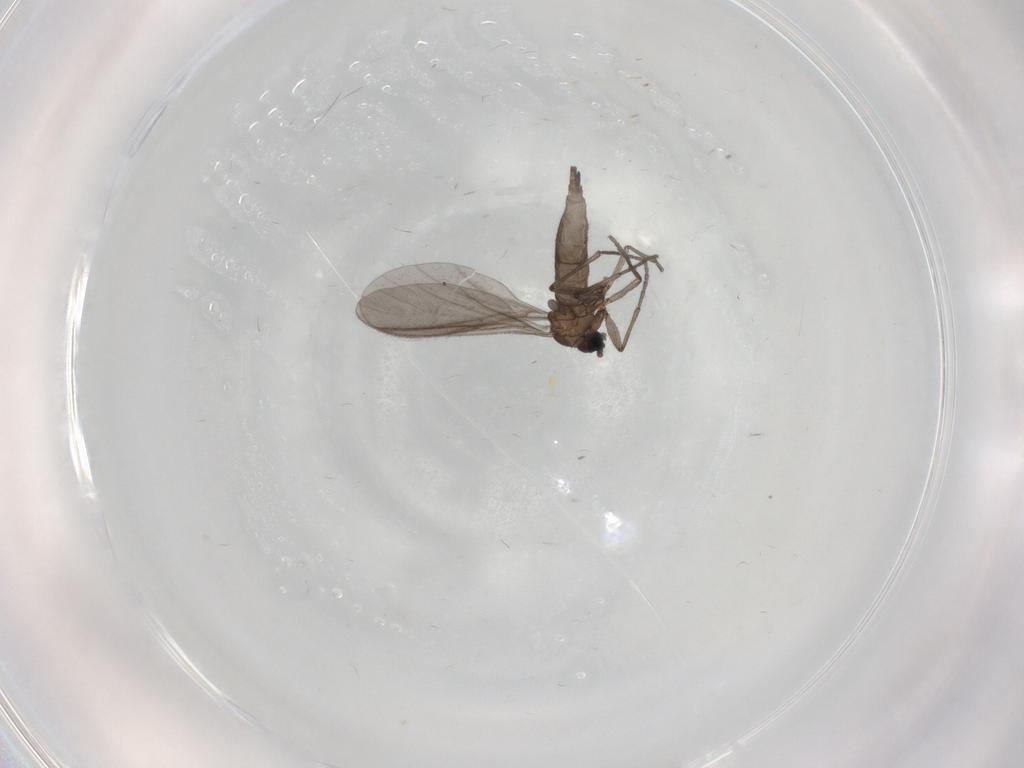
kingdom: Animalia
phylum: Arthropoda
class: Insecta
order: Diptera
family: Sciaridae
